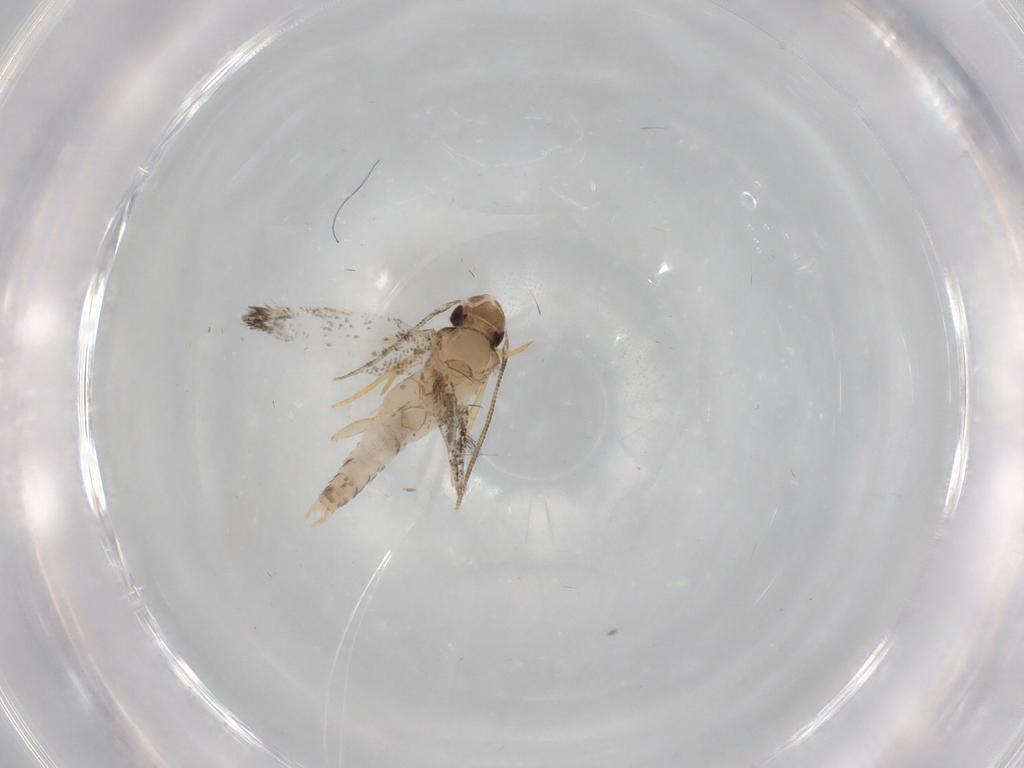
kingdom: Animalia
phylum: Arthropoda
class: Insecta
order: Lepidoptera
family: Gelechiidae
